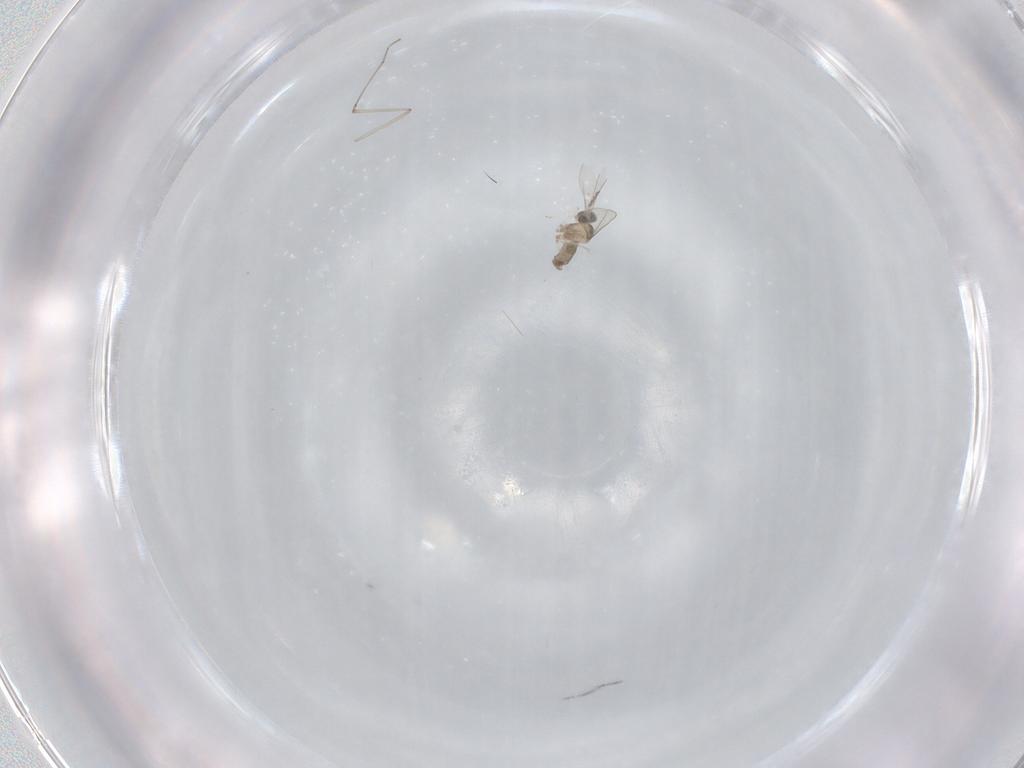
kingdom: Animalia
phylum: Arthropoda
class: Insecta
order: Diptera
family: Cecidomyiidae
